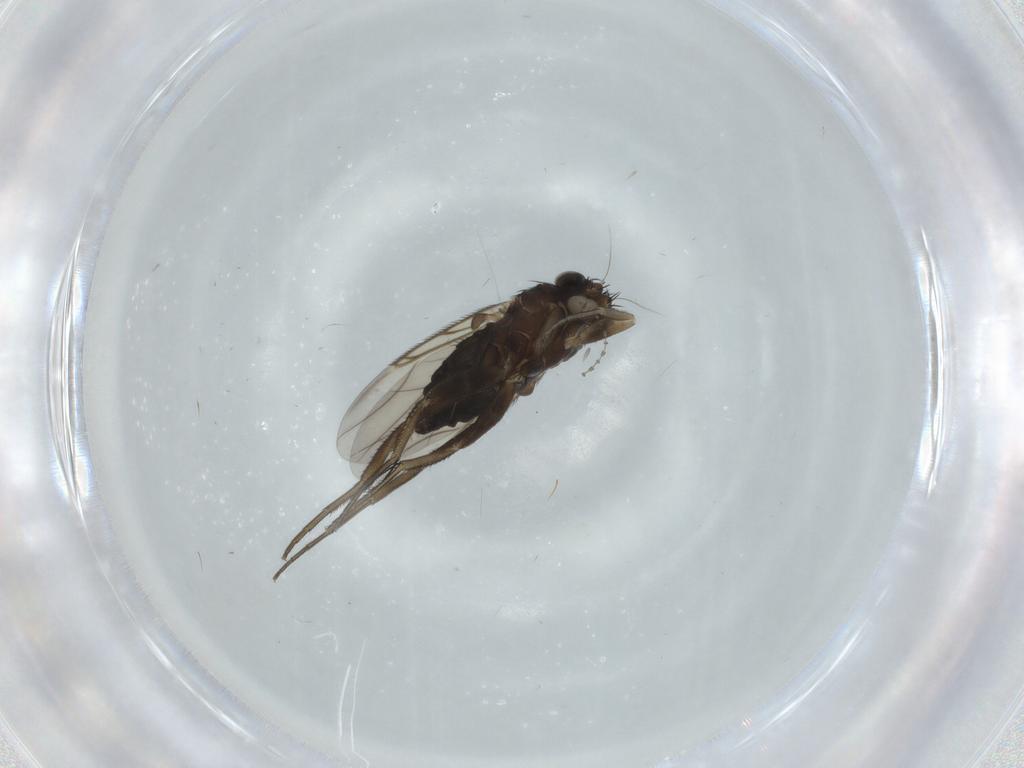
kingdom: Animalia
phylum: Arthropoda
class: Insecta
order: Diptera
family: Phoridae
